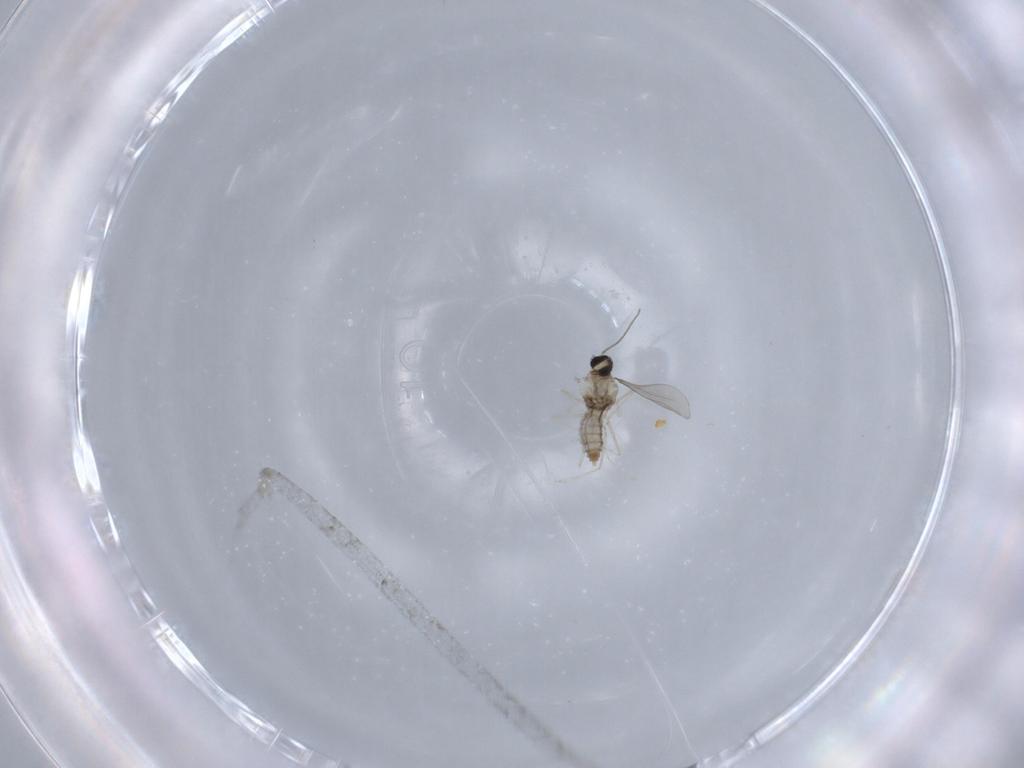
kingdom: Animalia
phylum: Arthropoda
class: Insecta
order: Diptera
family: Cecidomyiidae
